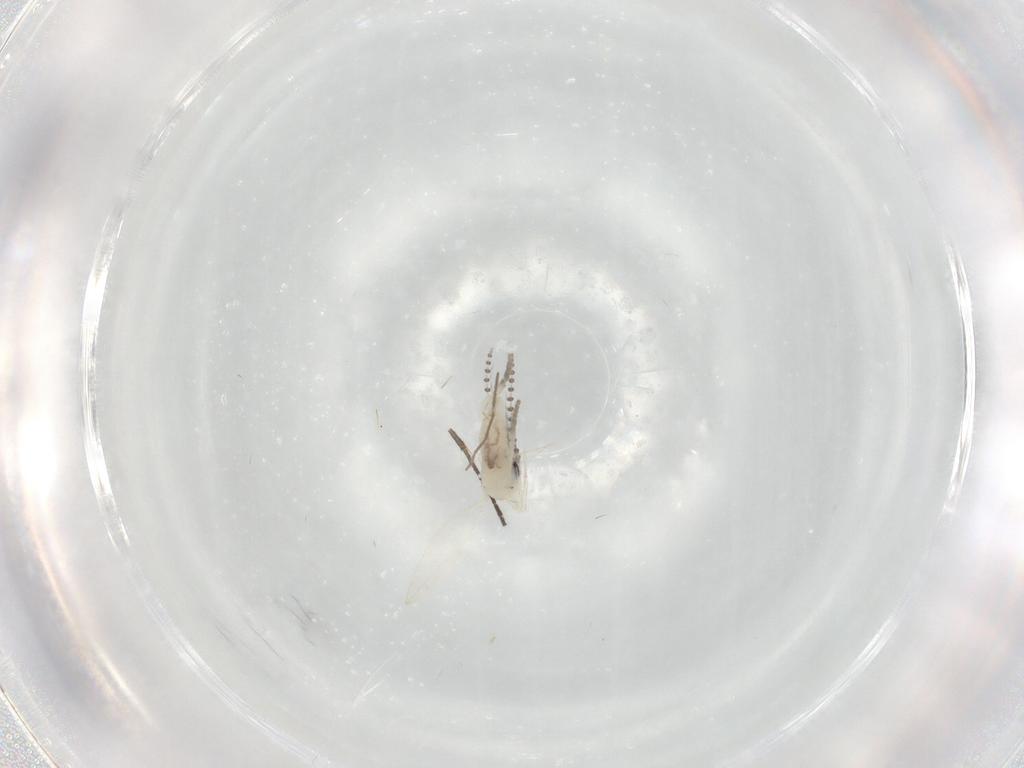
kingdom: Animalia
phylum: Arthropoda
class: Insecta
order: Diptera
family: Psychodidae
